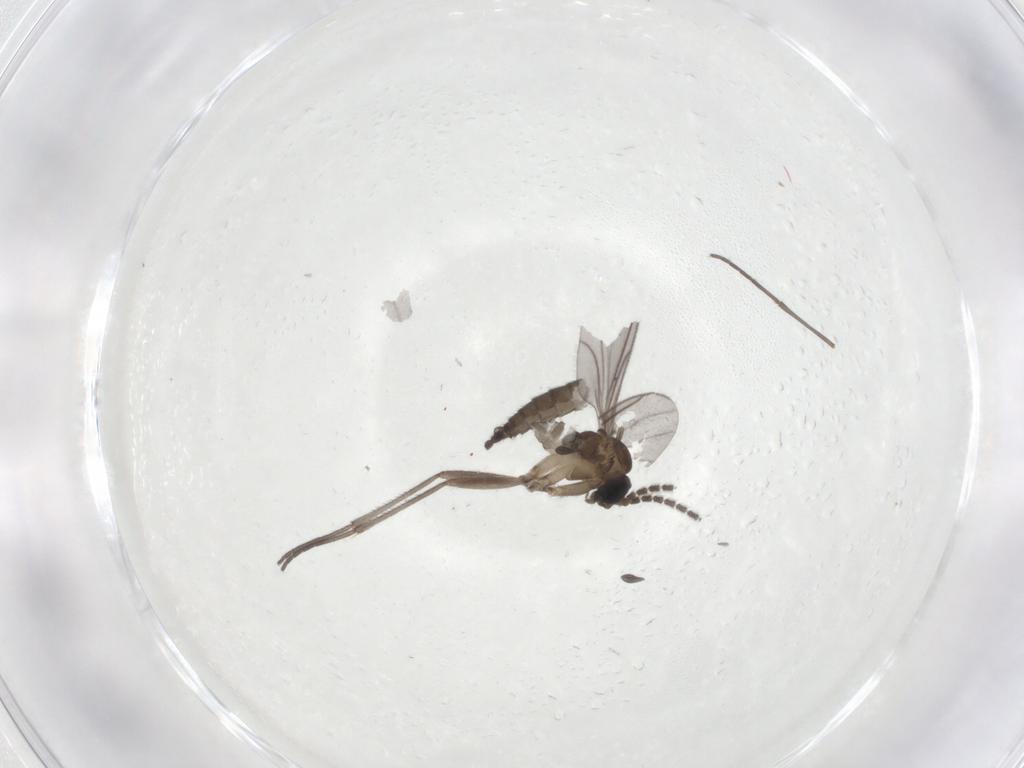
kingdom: Animalia
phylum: Arthropoda
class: Insecta
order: Diptera
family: Sciaridae
